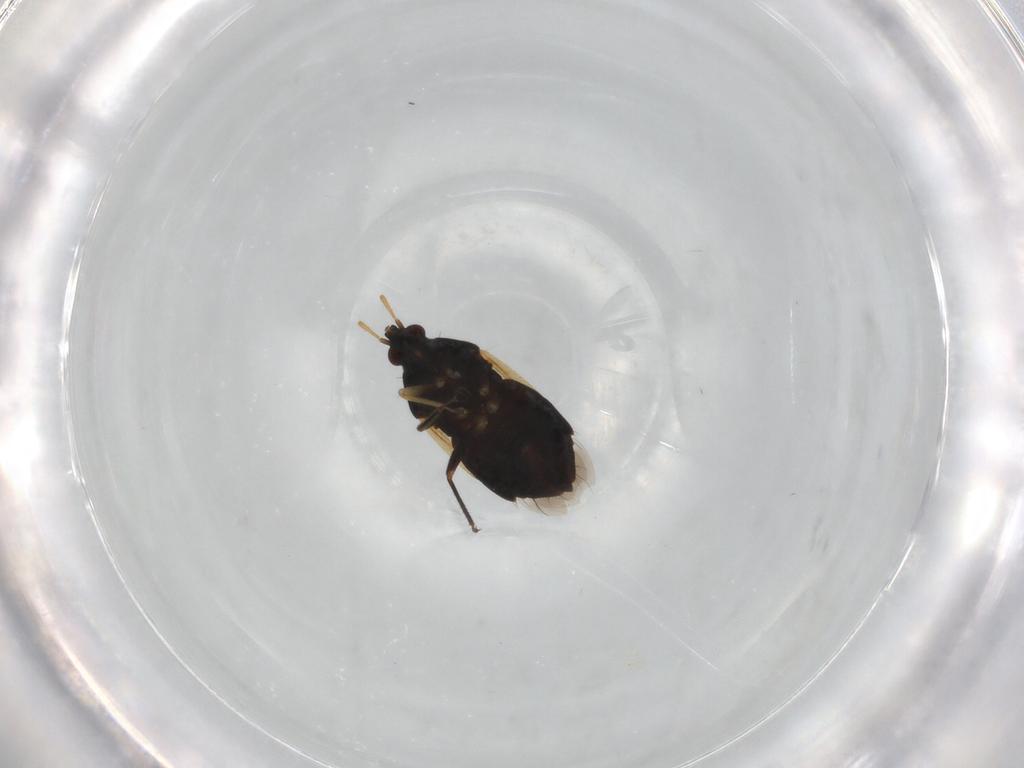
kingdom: Animalia
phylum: Arthropoda
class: Insecta
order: Hemiptera
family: Anthocoridae
